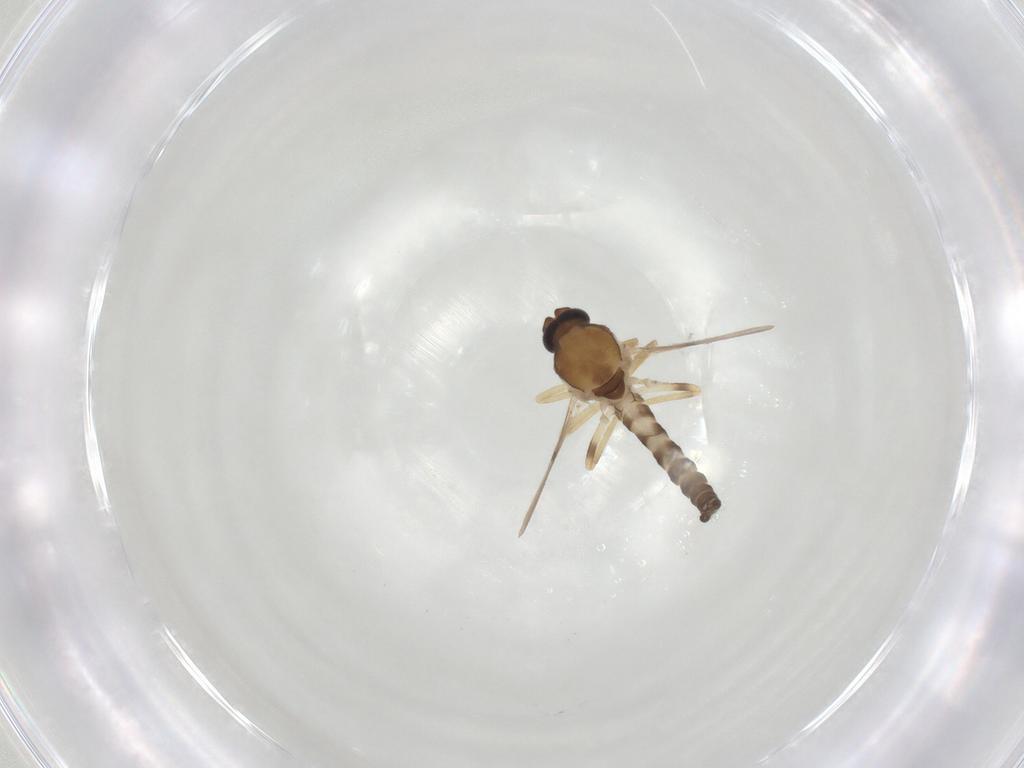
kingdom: Animalia
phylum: Arthropoda
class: Insecta
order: Diptera
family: Ceratopogonidae
